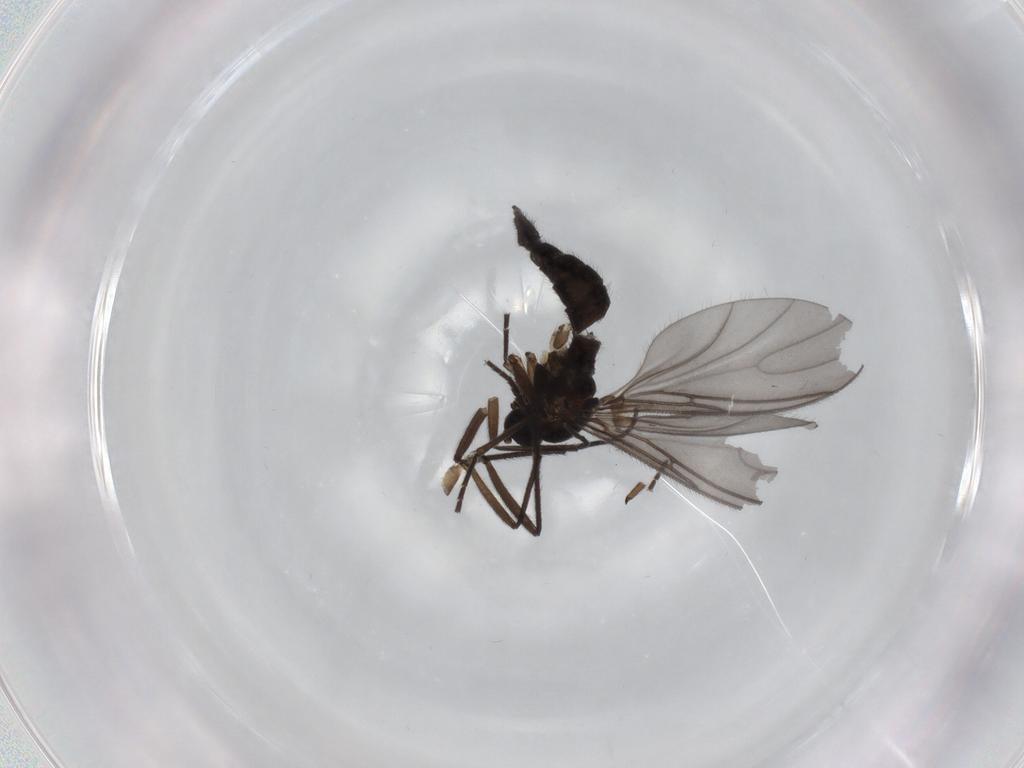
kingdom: Animalia
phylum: Arthropoda
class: Insecta
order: Diptera
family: Sciaridae
